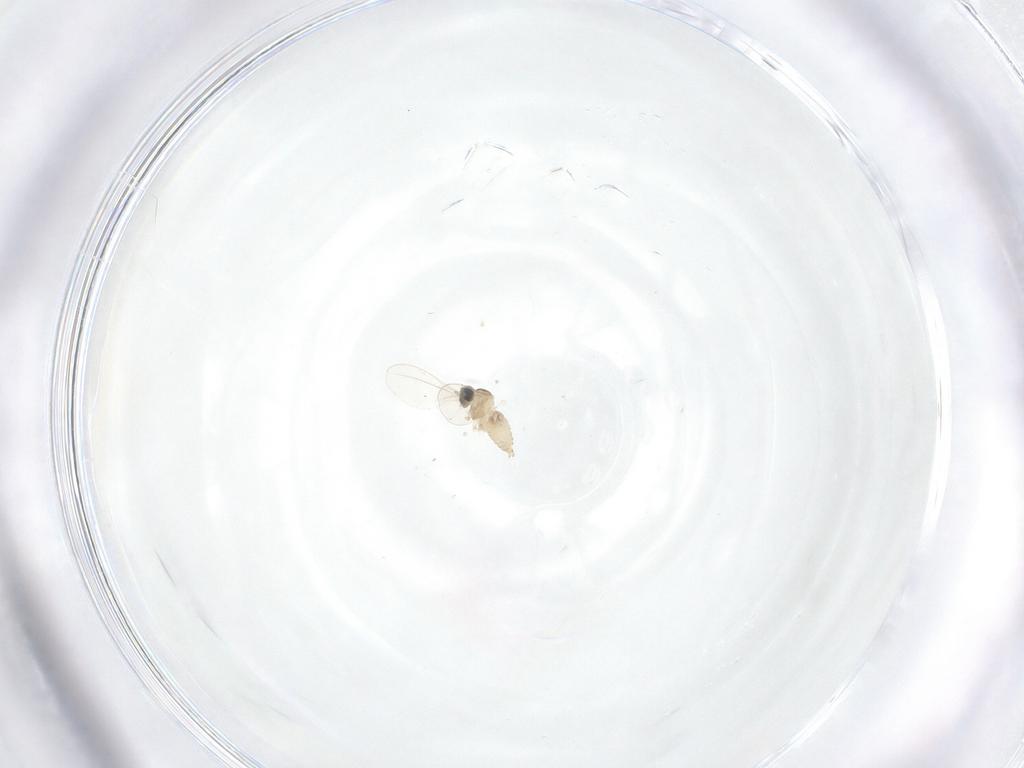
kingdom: Animalia
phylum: Arthropoda
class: Insecta
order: Diptera
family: Cecidomyiidae
